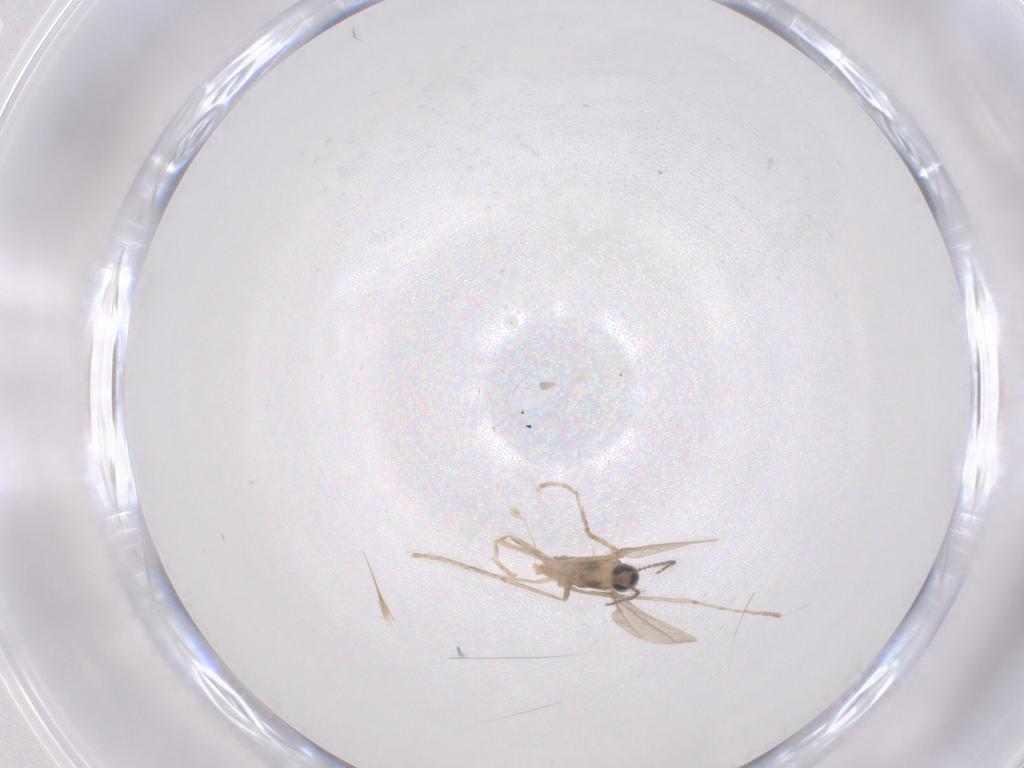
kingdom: Animalia
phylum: Arthropoda
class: Insecta
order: Diptera
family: Cecidomyiidae
